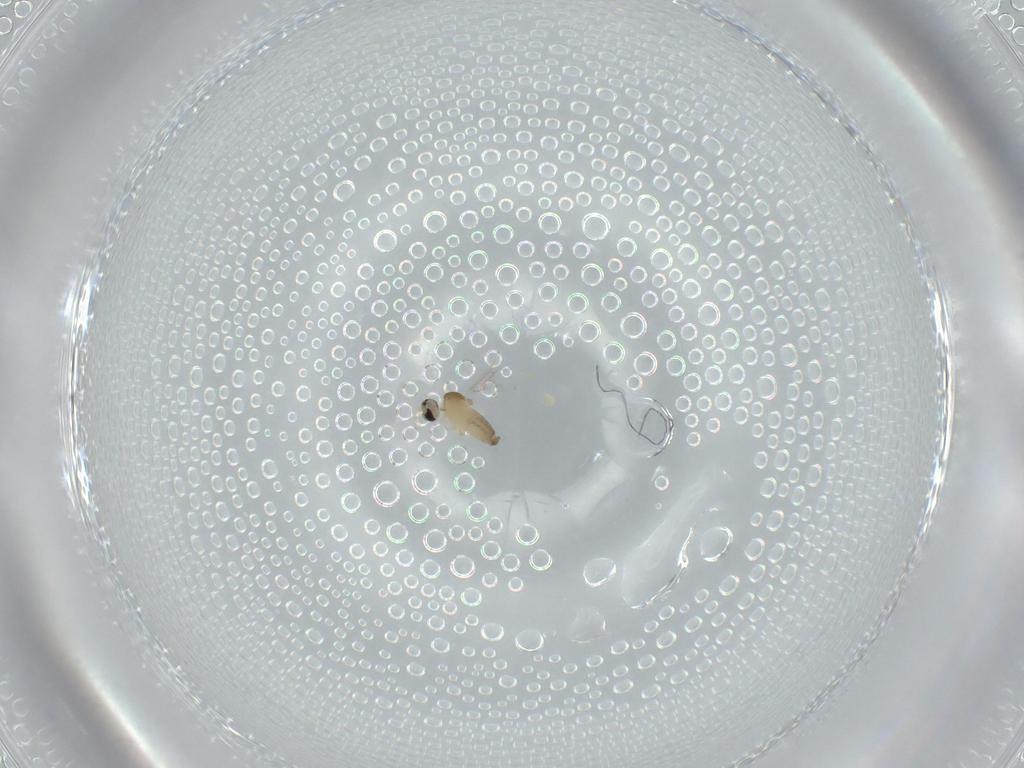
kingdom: Animalia
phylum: Arthropoda
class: Insecta
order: Diptera
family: Cecidomyiidae
